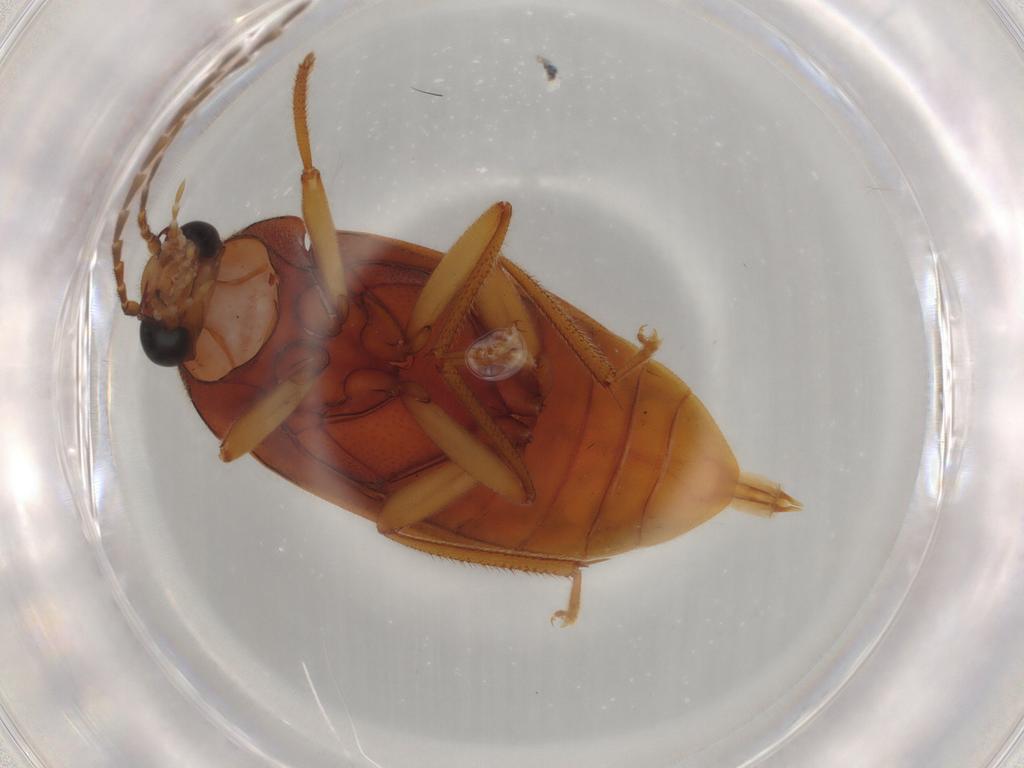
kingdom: Animalia
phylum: Arthropoda
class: Insecta
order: Coleoptera
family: Ptilodactylidae
